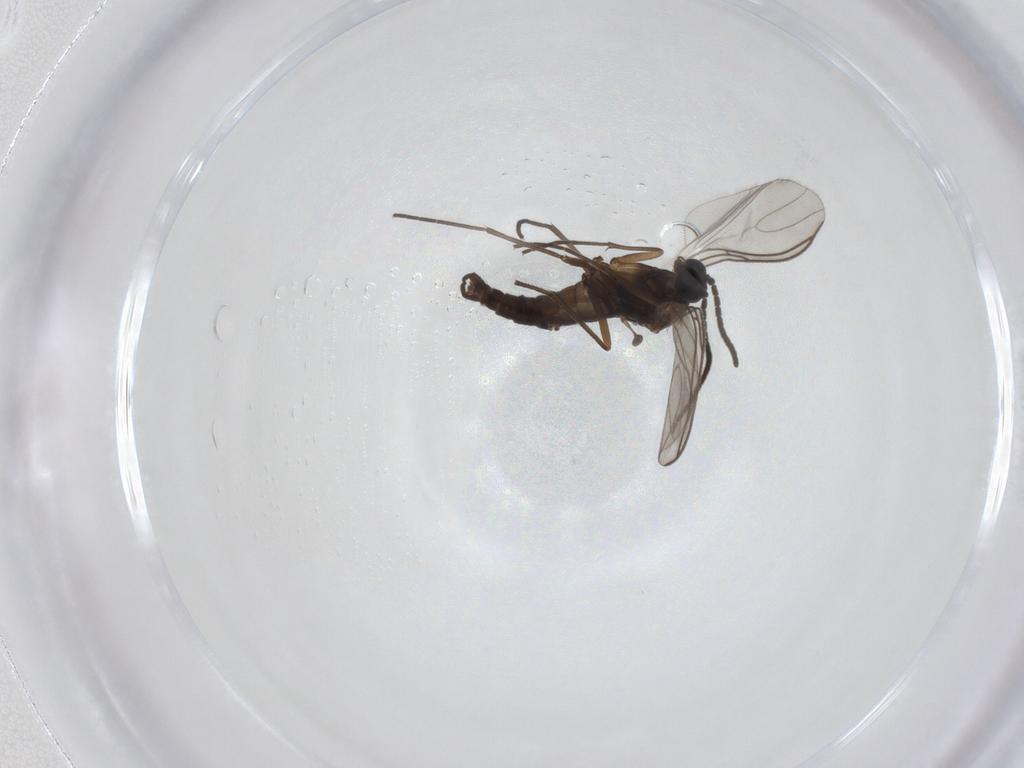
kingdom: Animalia
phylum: Arthropoda
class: Insecta
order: Diptera
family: Sciaridae
